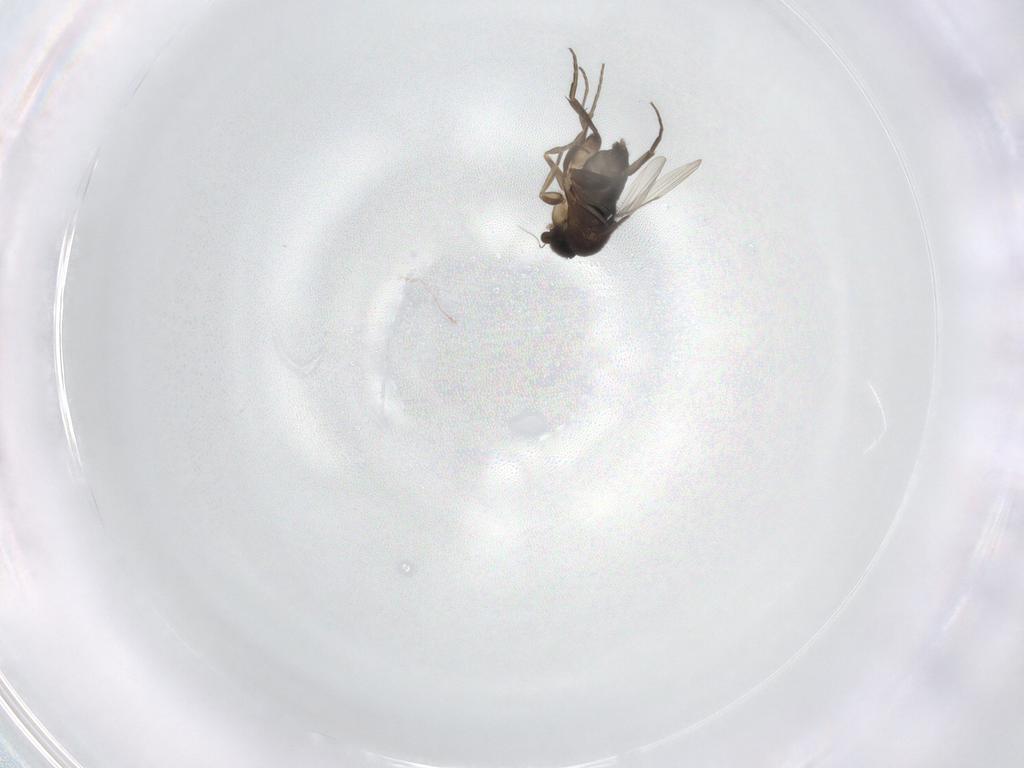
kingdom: Animalia
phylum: Arthropoda
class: Insecta
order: Diptera
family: Phoridae
